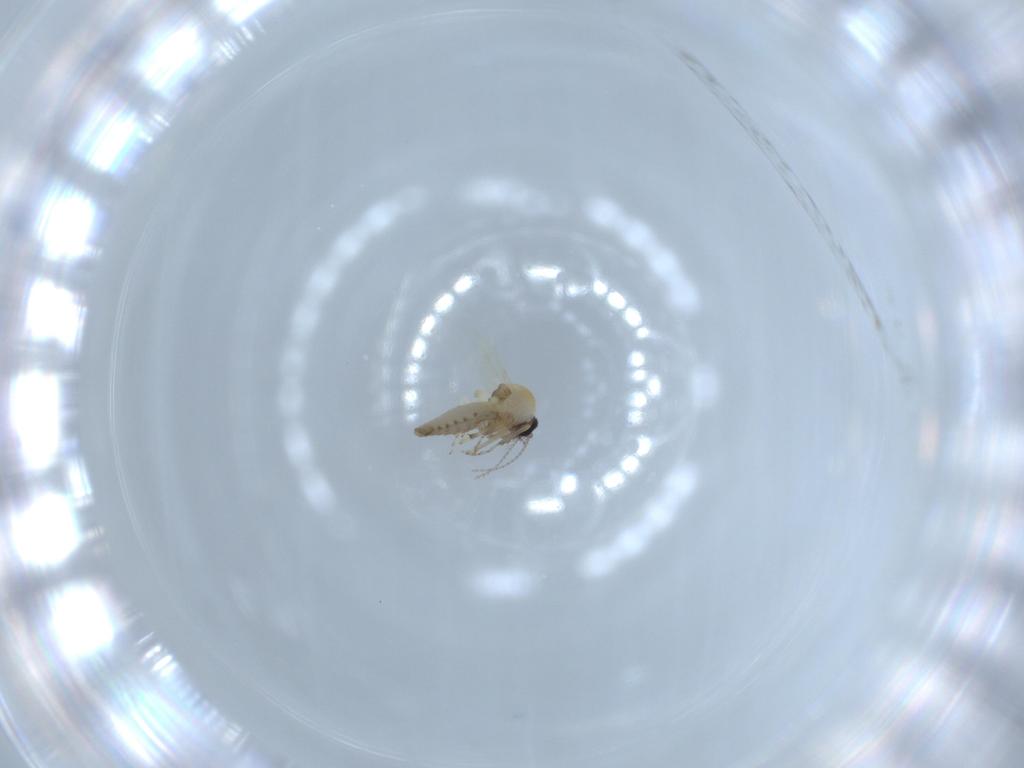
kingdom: Animalia
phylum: Arthropoda
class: Insecta
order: Diptera
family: Ceratopogonidae
